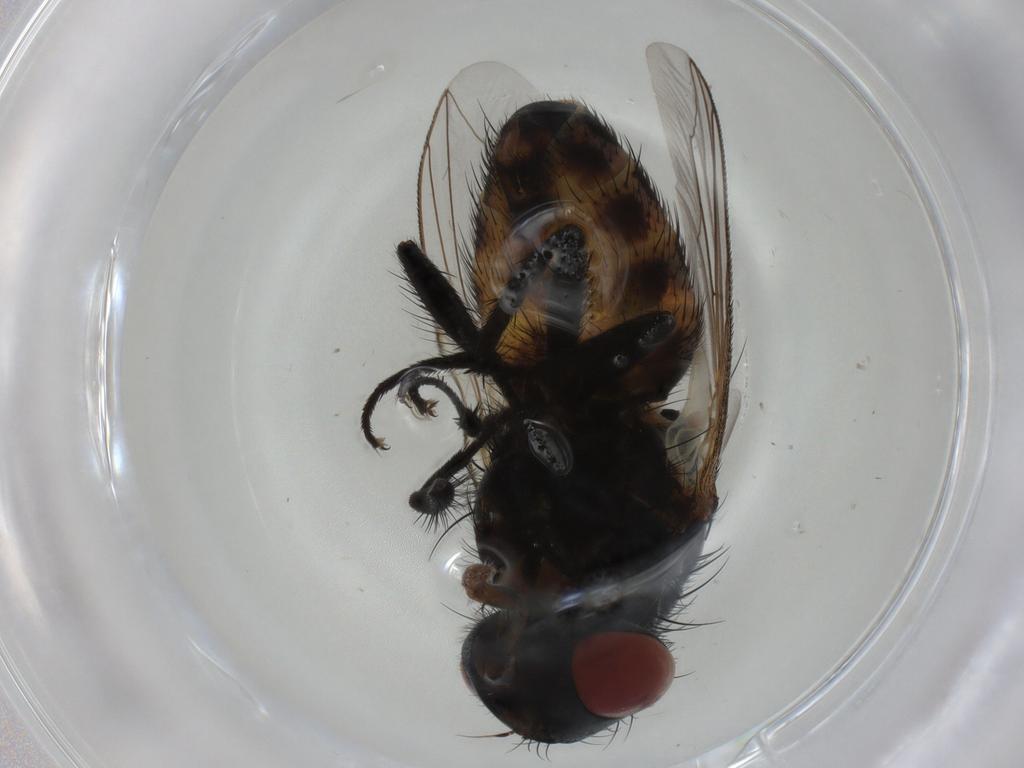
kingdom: Animalia
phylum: Arthropoda
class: Insecta
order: Diptera
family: Sarcophagidae
